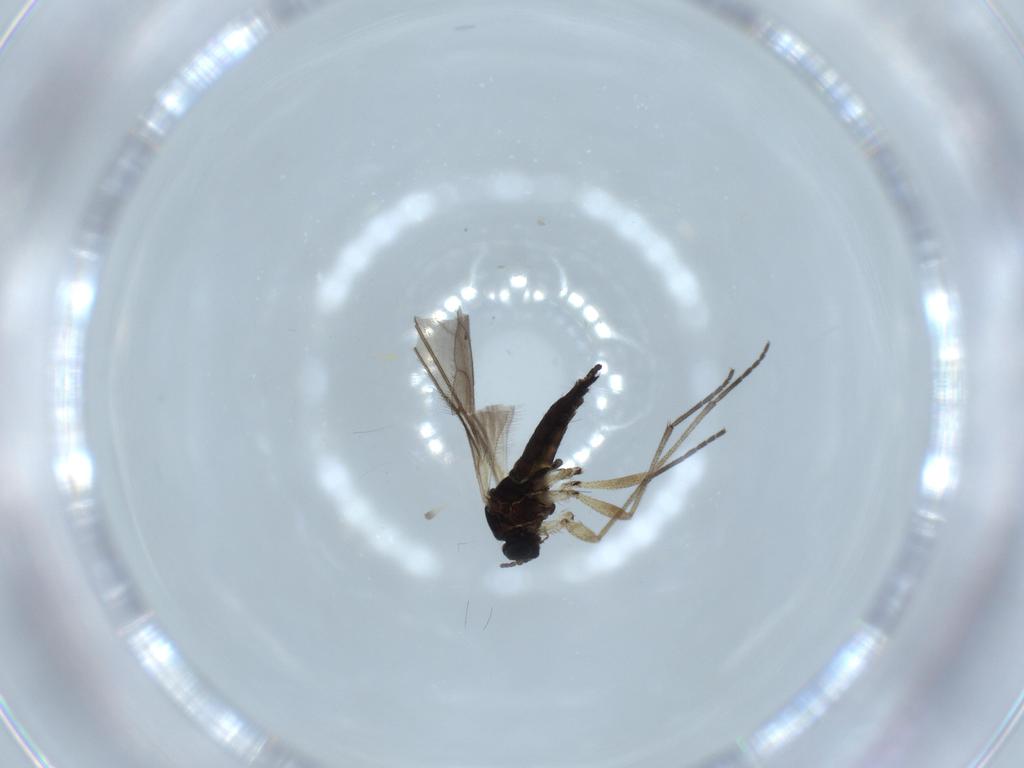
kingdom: Animalia
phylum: Arthropoda
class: Insecta
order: Diptera
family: Sciaridae
